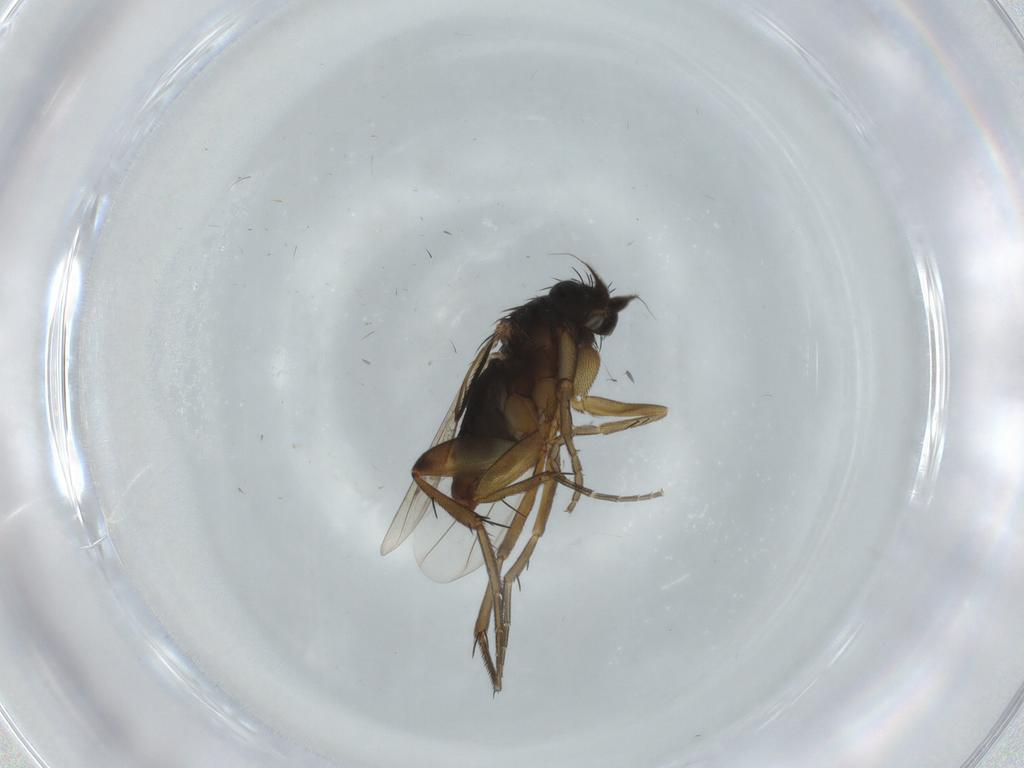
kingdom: Animalia
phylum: Arthropoda
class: Insecta
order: Diptera
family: Phoridae
